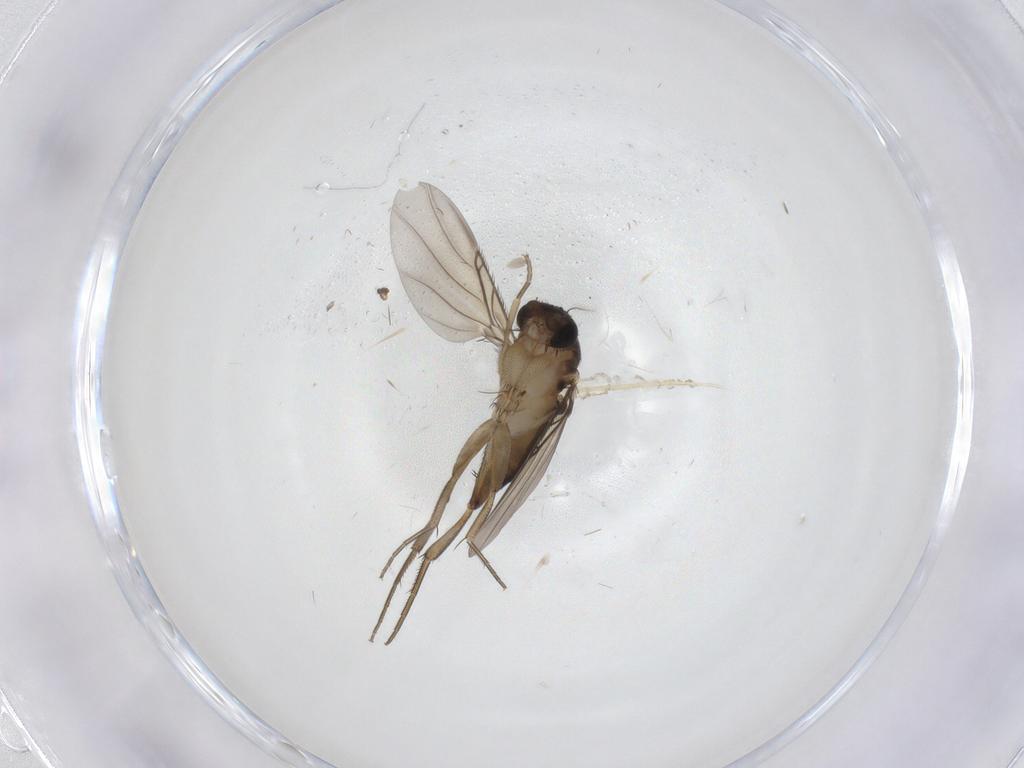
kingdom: Animalia
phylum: Arthropoda
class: Insecta
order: Diptera
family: Phoridae
